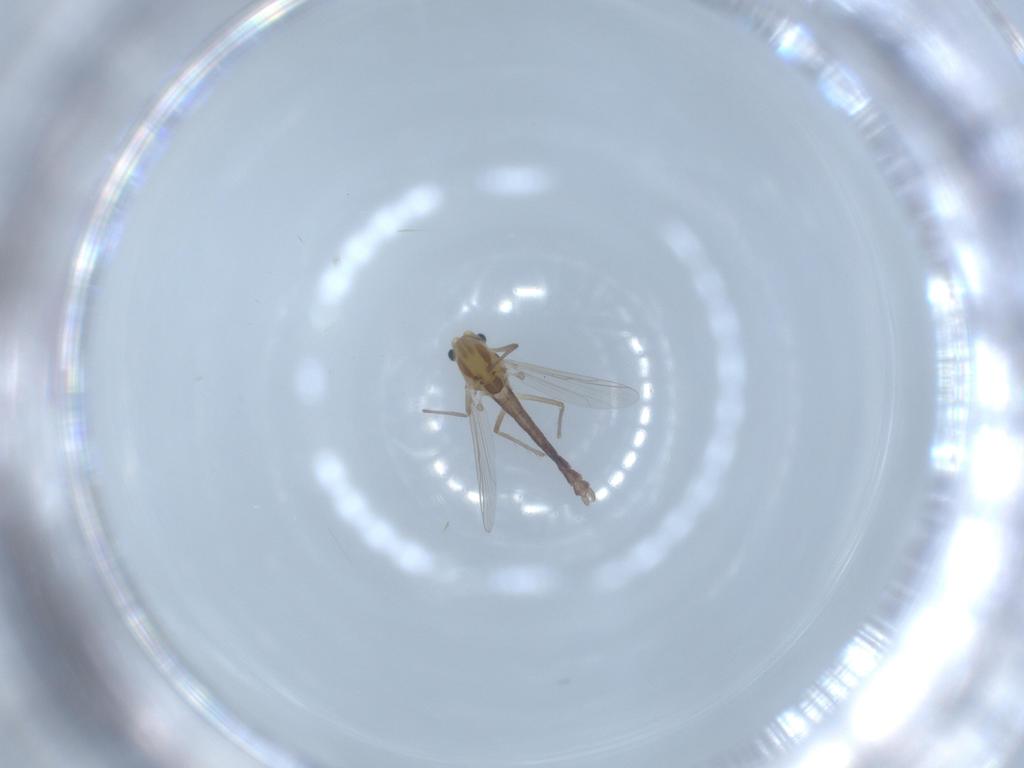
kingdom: Animalia
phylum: Arthropoda
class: Insecta
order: Diptera
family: Chironomidae
